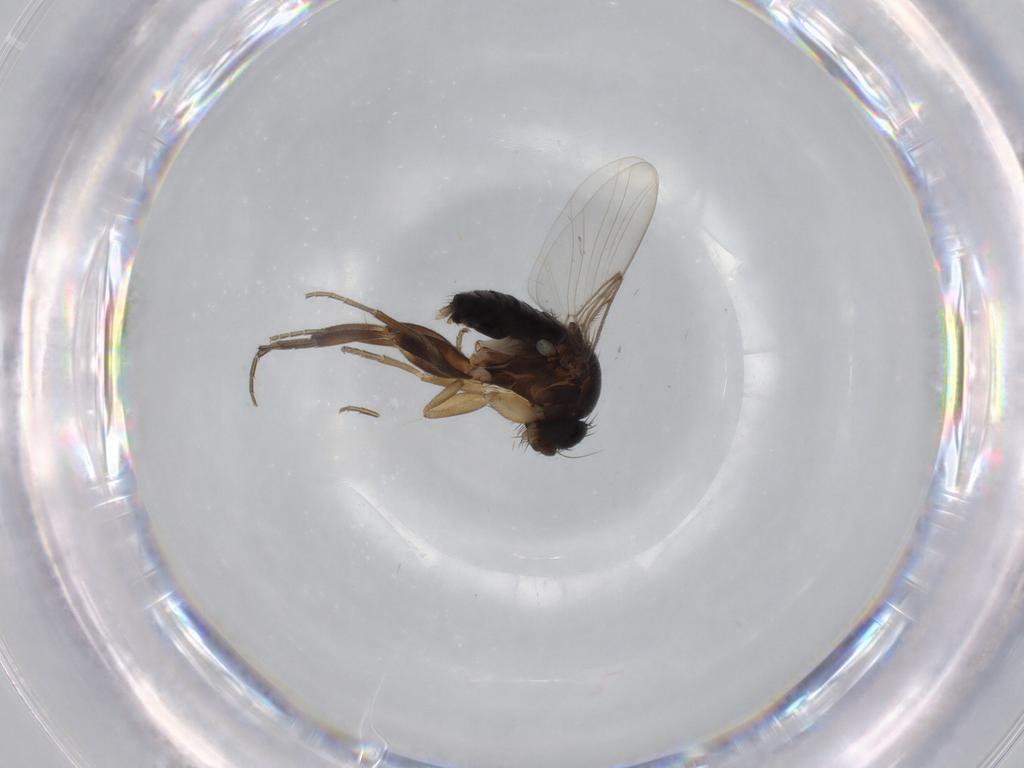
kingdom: Animalia
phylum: Arthropoda
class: Insecta
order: Diptera
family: Phoridae
